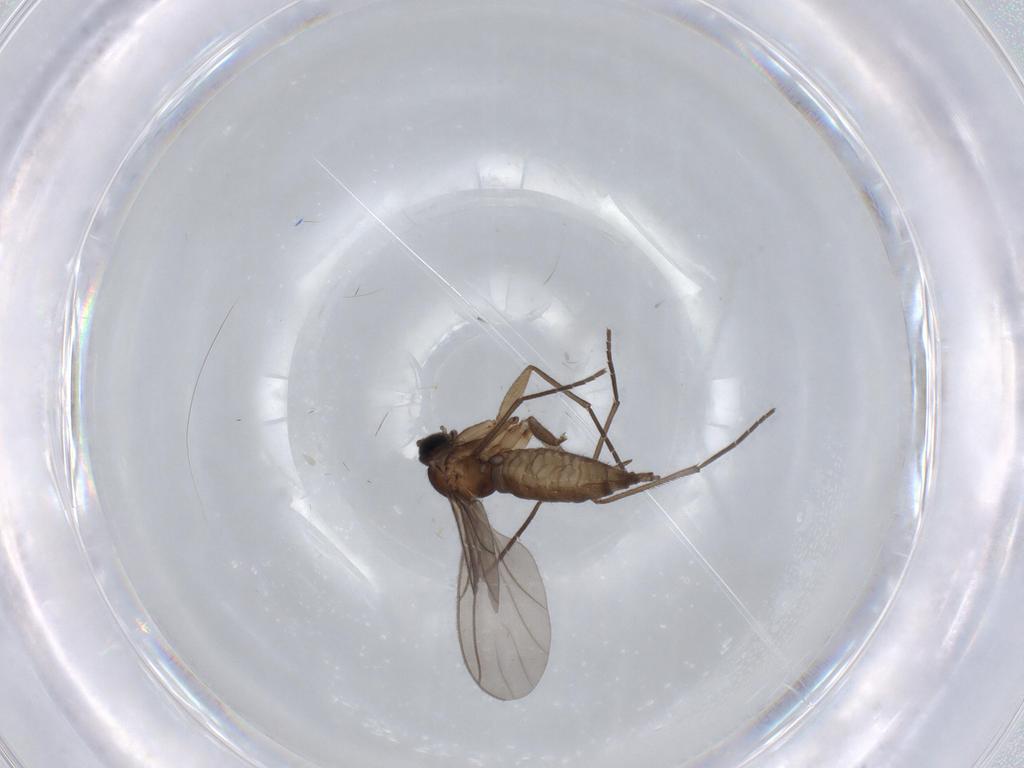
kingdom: Animalia
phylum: Arthropoda
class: Insecta
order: Diptera
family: Sciaridae
